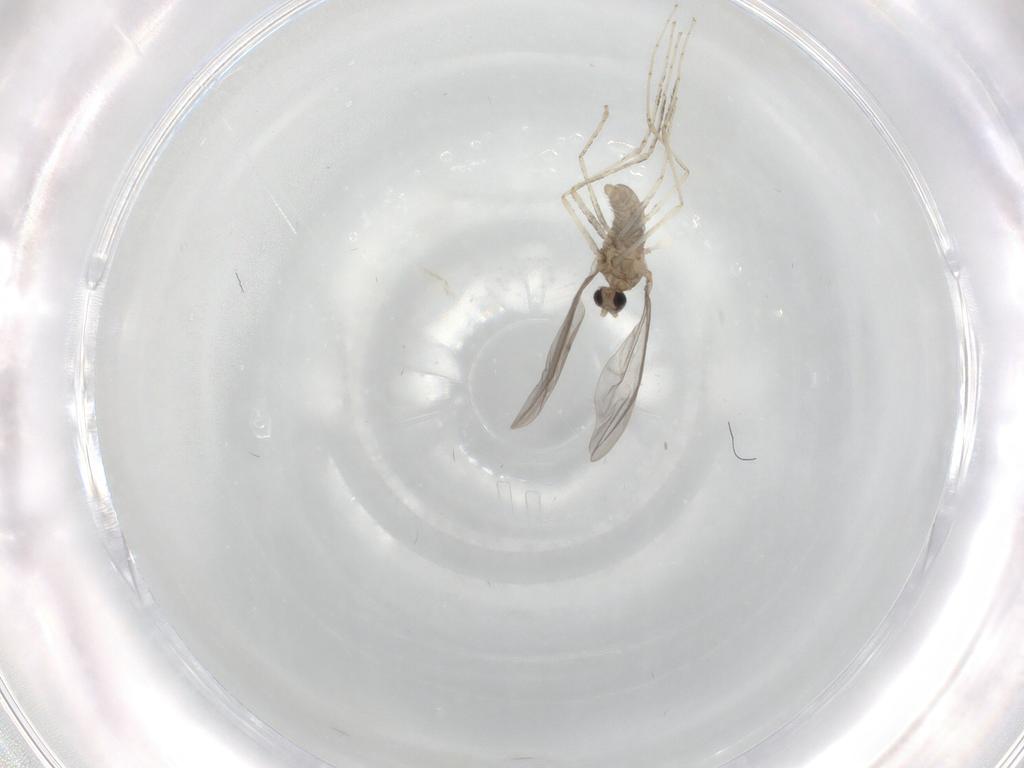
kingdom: Animalia
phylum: Arthropoda
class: Insecta
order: Diptera
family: Cecidomyiidae
